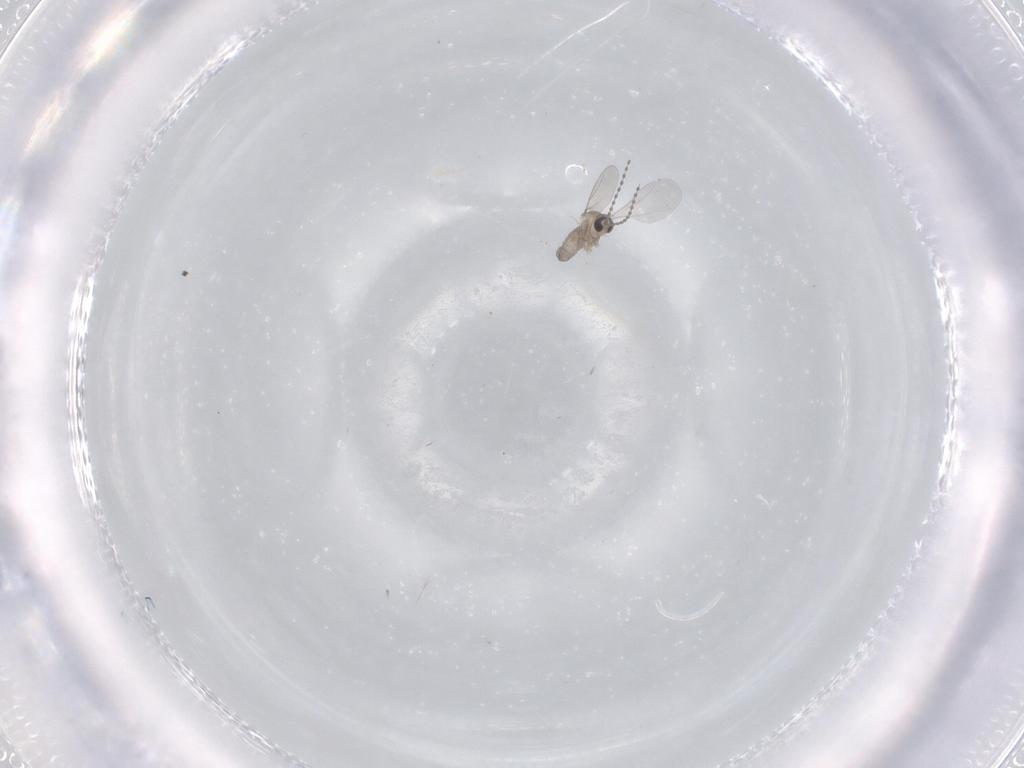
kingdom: Animalia
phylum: Arthropoda
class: Insecta
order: Diptera
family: Cecidomyiidae
